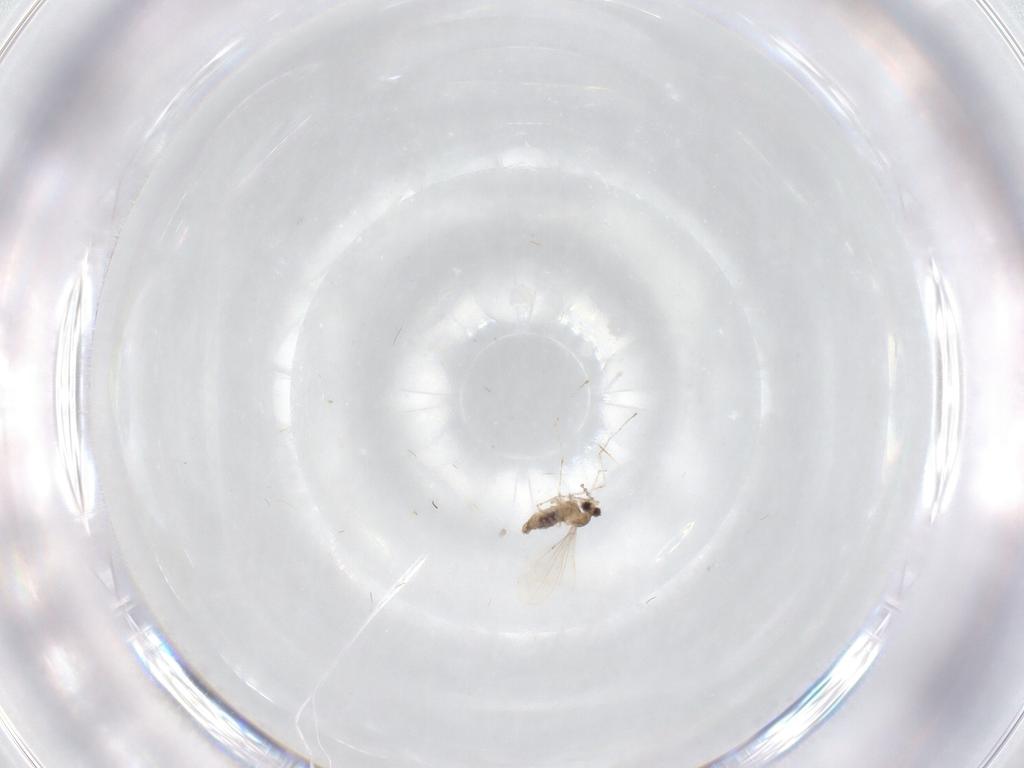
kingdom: Animalia
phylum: Arthropoda
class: Insecta
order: Diptera
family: Cecidomyiidae
